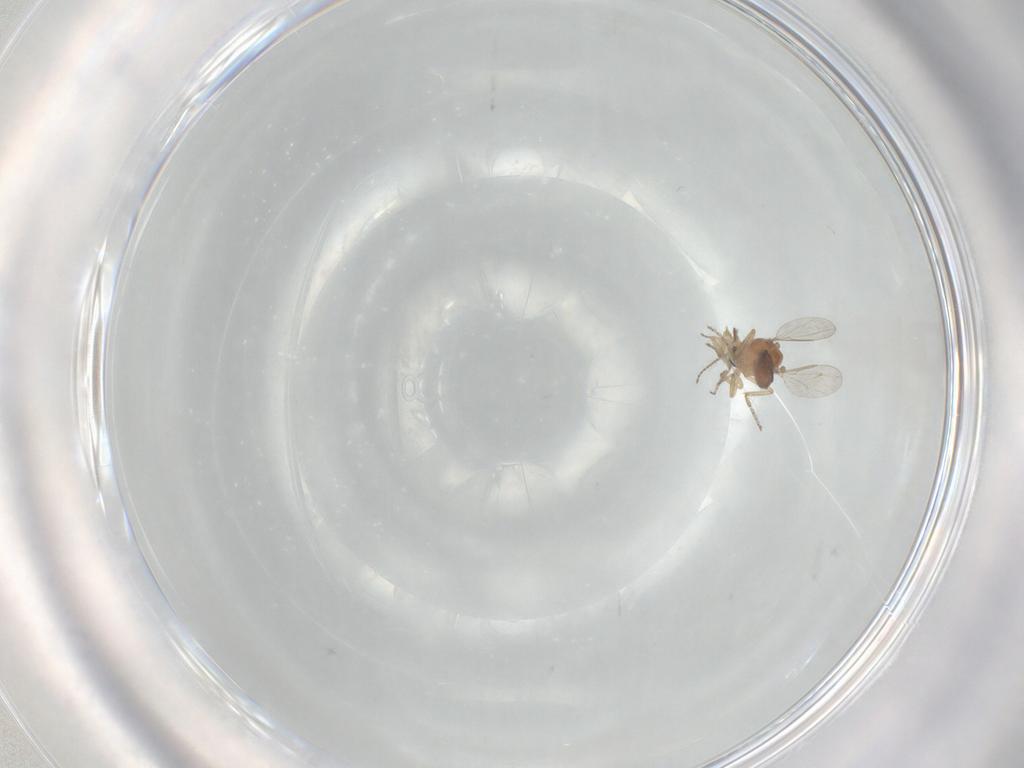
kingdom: Animalia
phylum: Arthropoda
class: Insecta
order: Diptera
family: Ceratopogonidae
